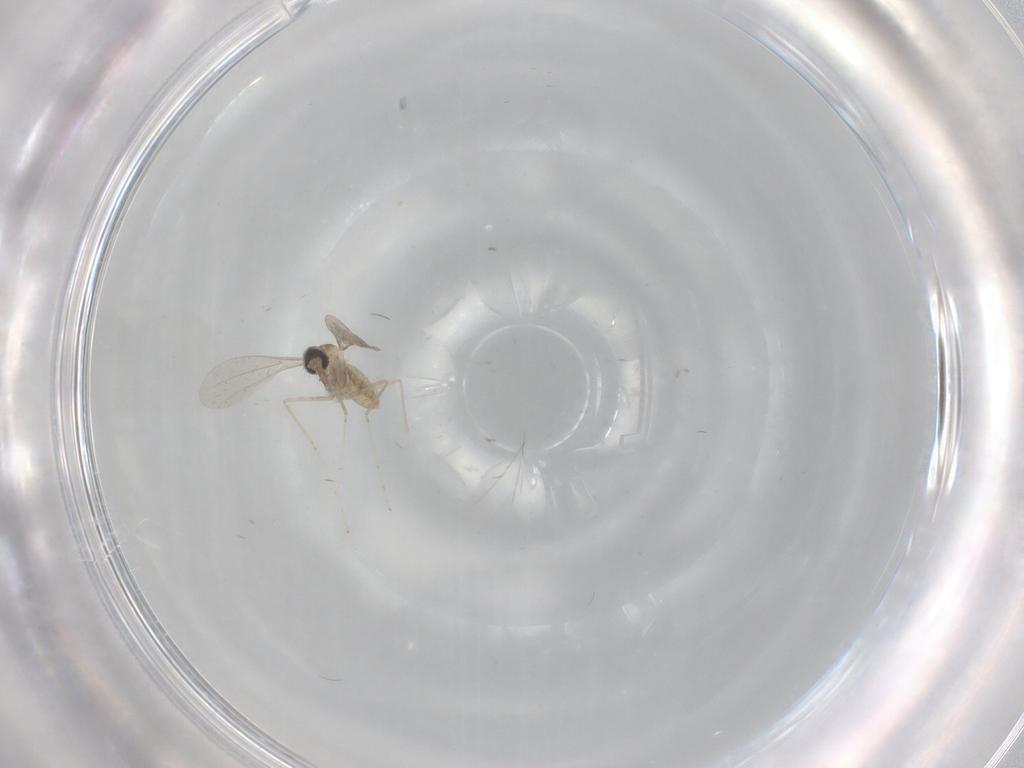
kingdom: Animalia
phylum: Arthropoda
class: Insecta
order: Diptera
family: Cecidomyiidae
